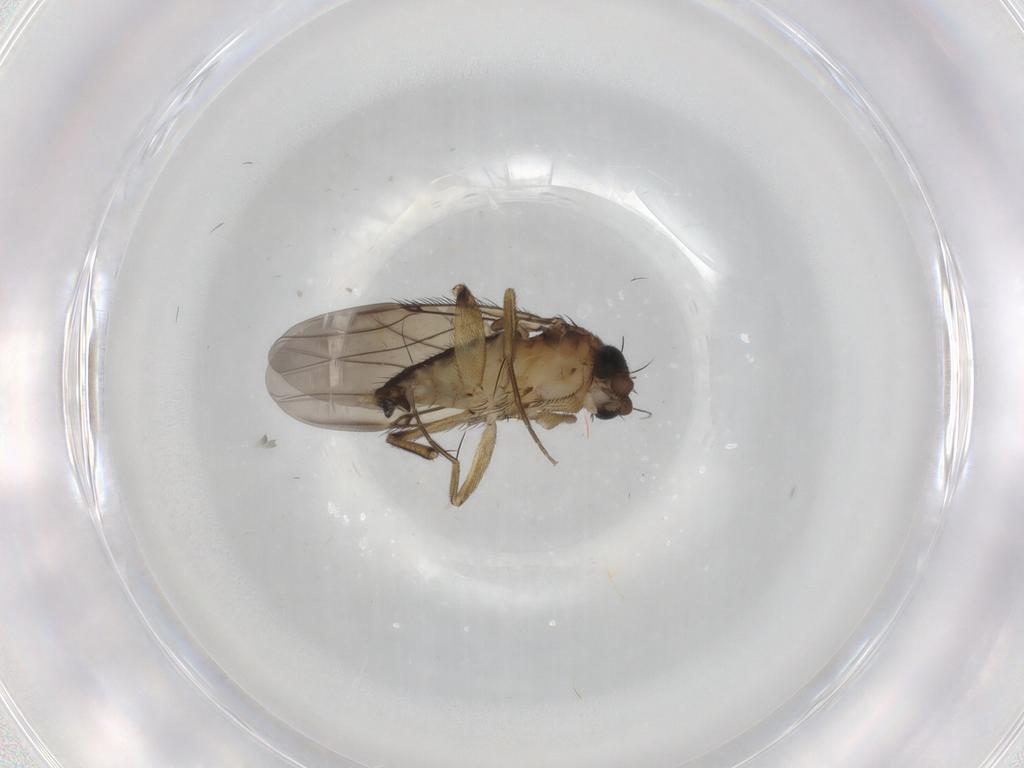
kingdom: Animalia
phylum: Arthropoda
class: Insecta
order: Diptera
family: Phoridae
